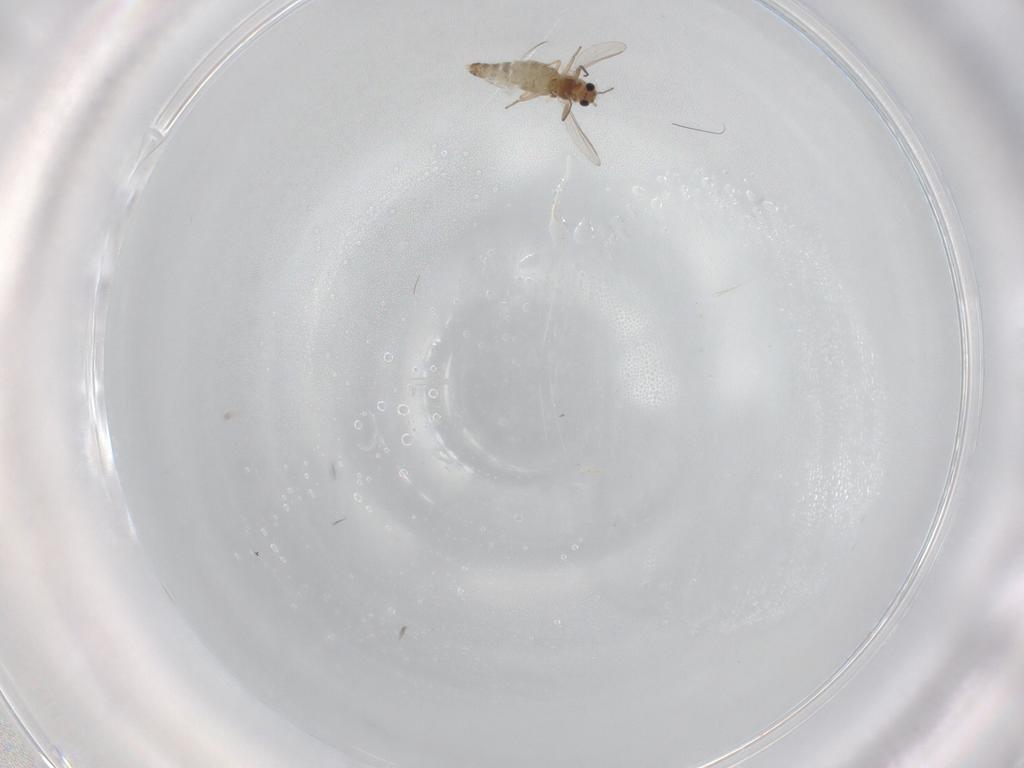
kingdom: Animalia
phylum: Arthropoda
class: Insecta
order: Diptera
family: Chironomidae
